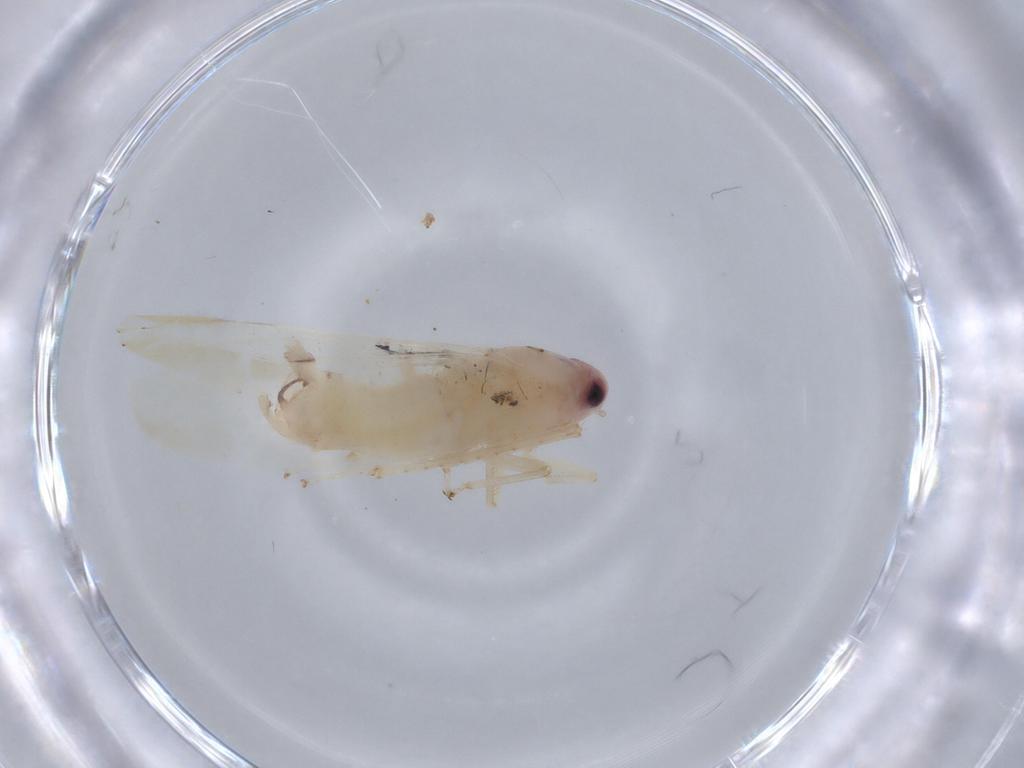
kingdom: Animalia
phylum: Arthropoda
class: Insecta
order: Hemiptera
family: Cicadellidae
